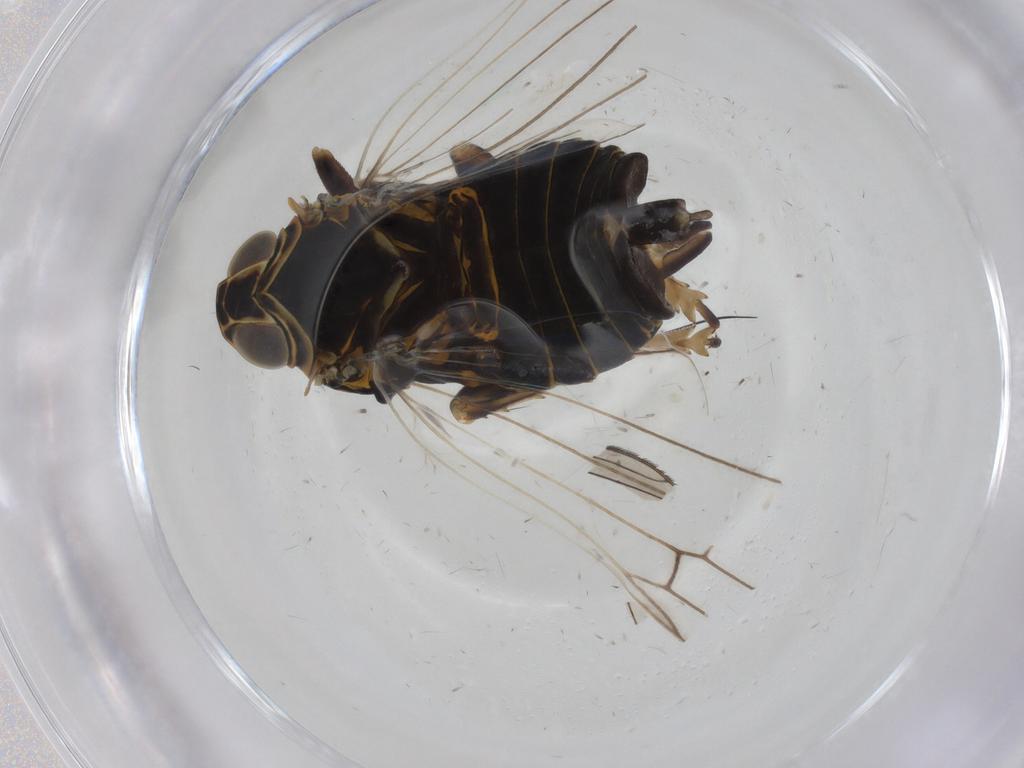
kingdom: Animalia
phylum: Arthropoda
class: Insecta
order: Hemiptera
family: Cixiidae
